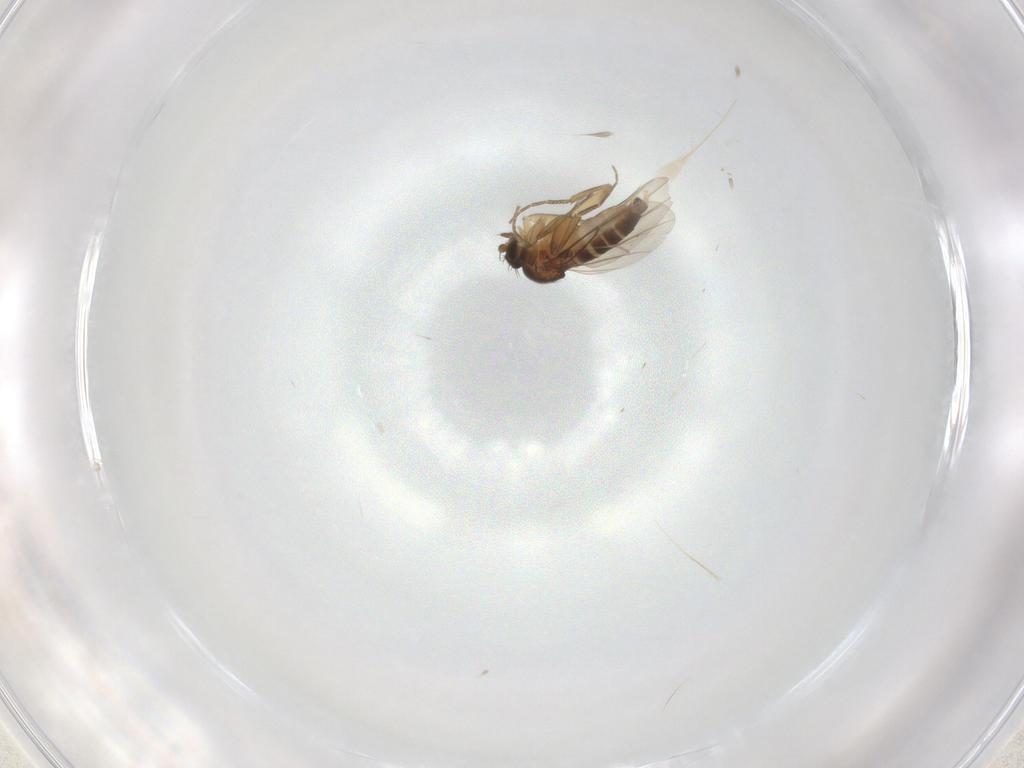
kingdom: Animalia
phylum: Arthropoda
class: Insecta
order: Diptera
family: Phoridae
